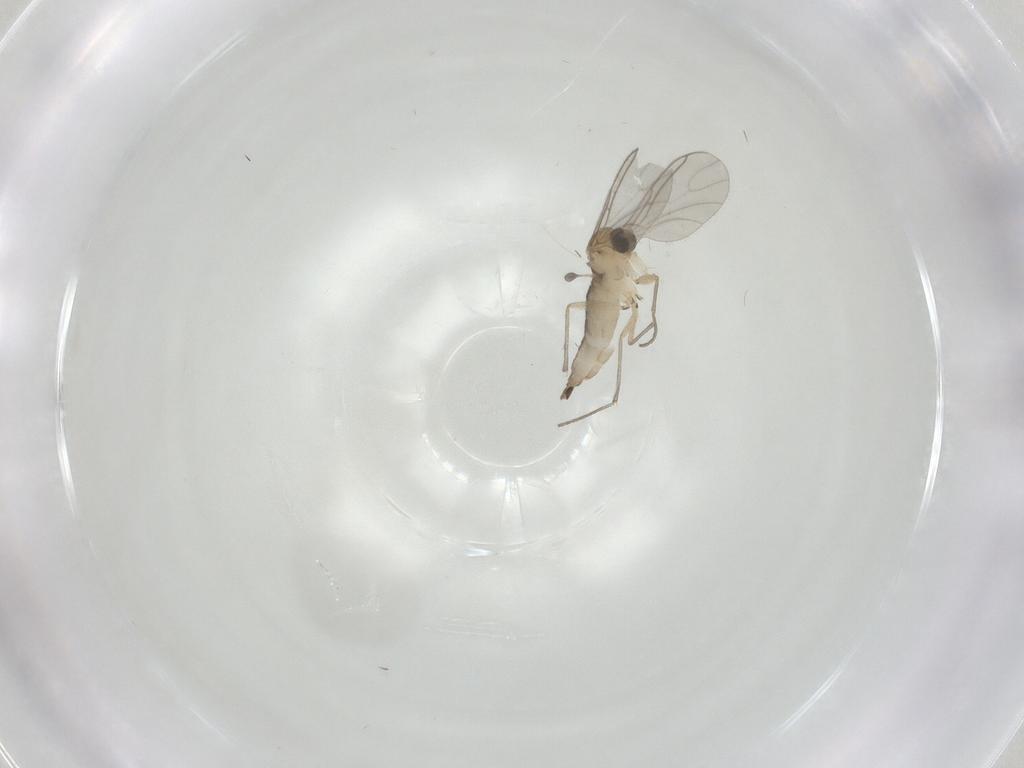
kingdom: Animalia
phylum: Arthropoda
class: Insecta
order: Diptera
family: Sciaridae
